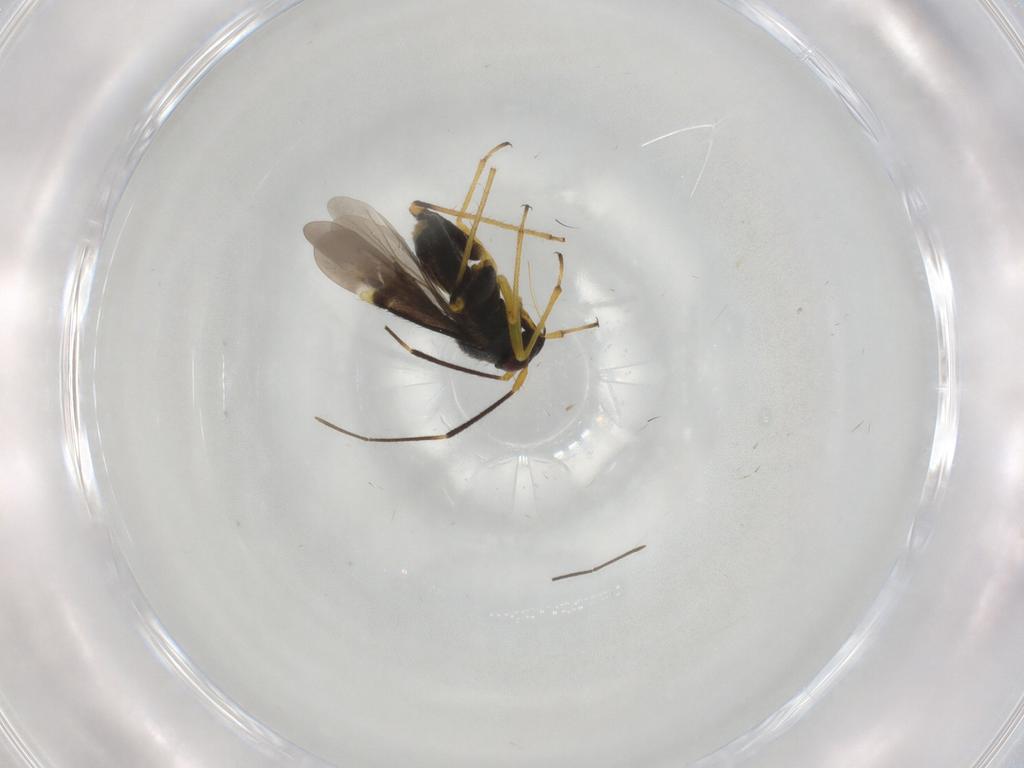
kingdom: Animalia
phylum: Arthropoda
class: Insecta
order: Hemiptera
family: Miridae
